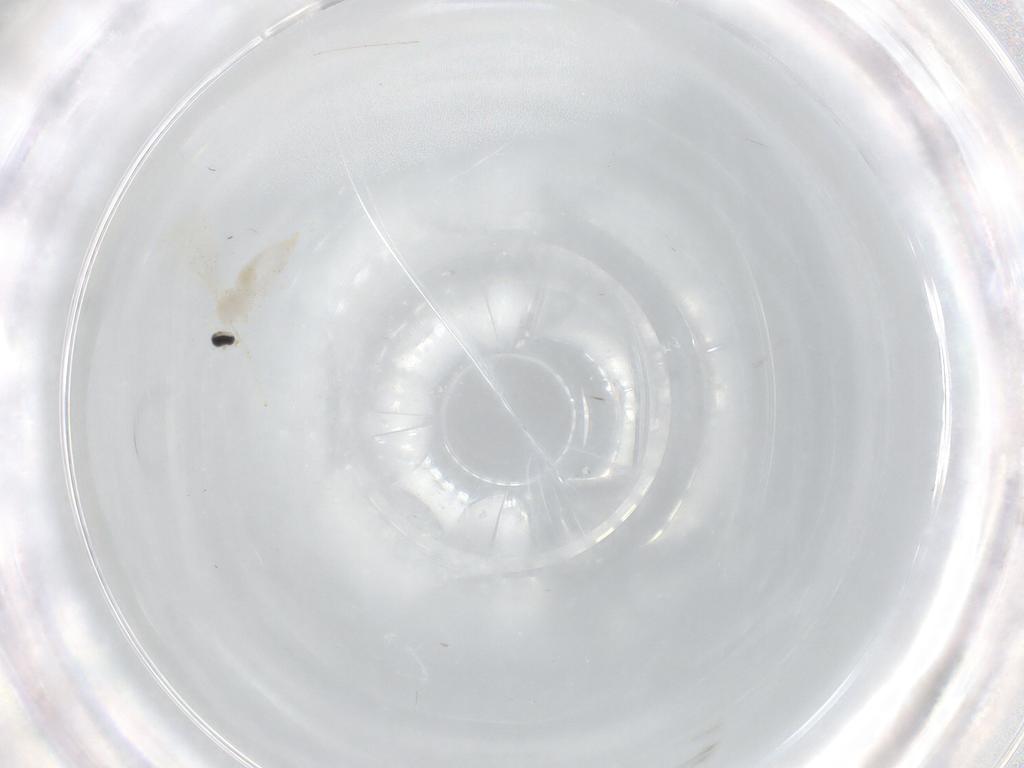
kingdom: Animalia
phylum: Arthropoda
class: Insecta
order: Diptera
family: Cecidomyiidae
